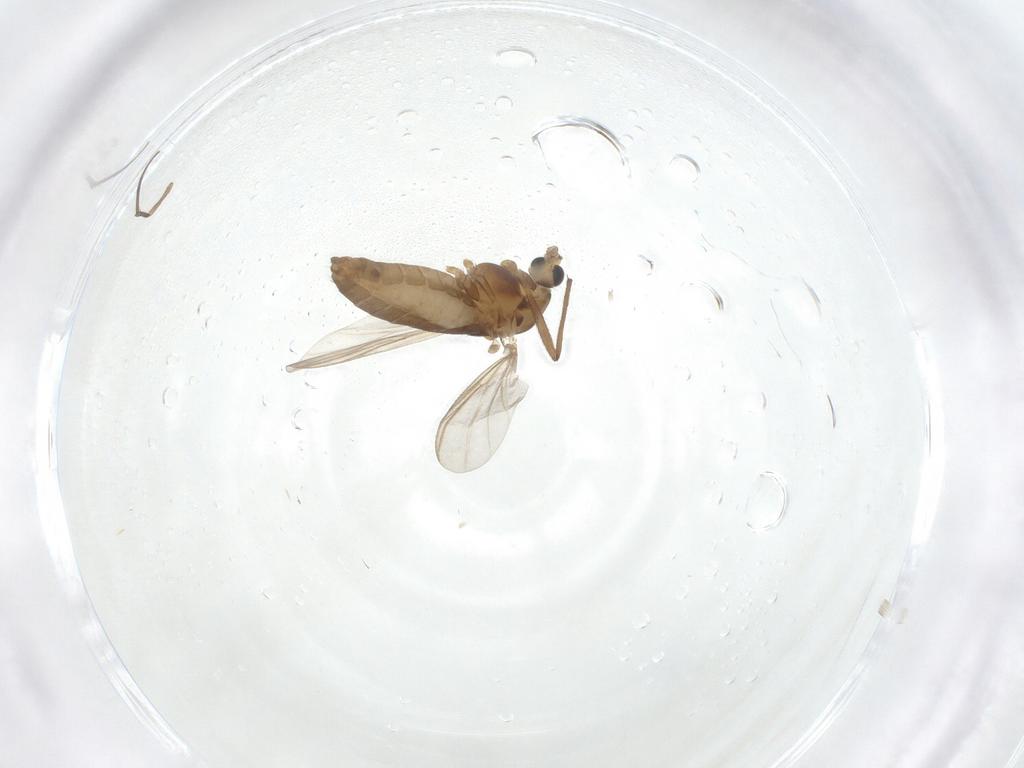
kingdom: Animalia
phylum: Arthropoda
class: Insecta
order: Diptera
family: Chironomidae
